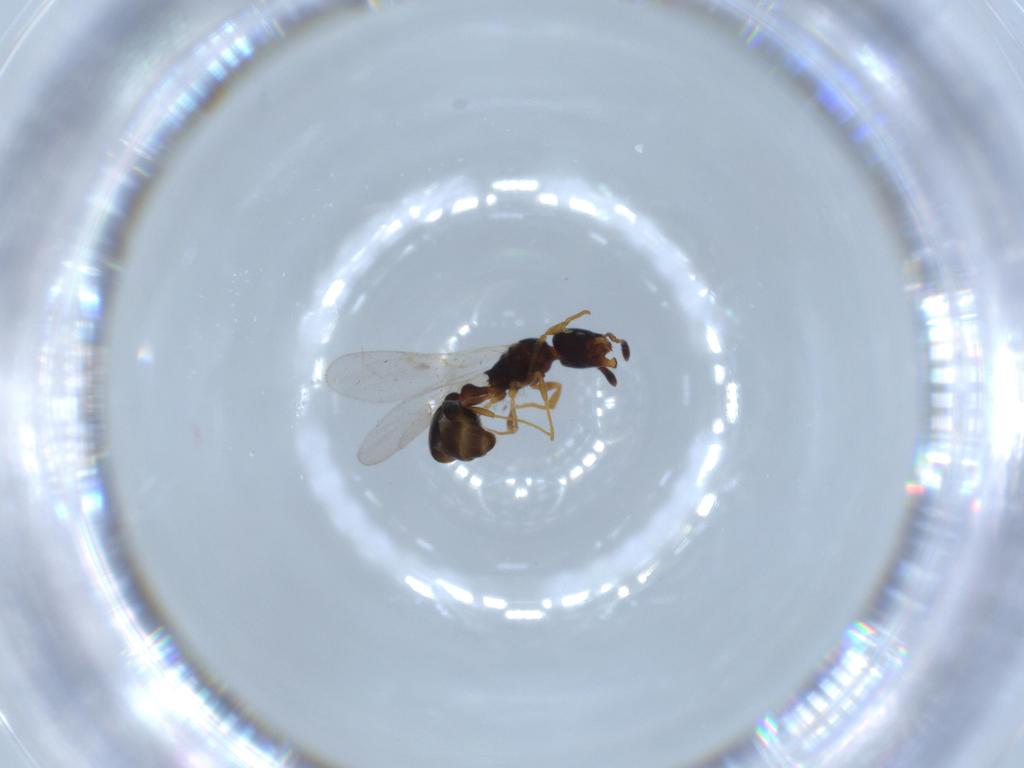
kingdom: Animalia
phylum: Arthropoda
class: Insecta
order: Hymenoptera
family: Formicidae
